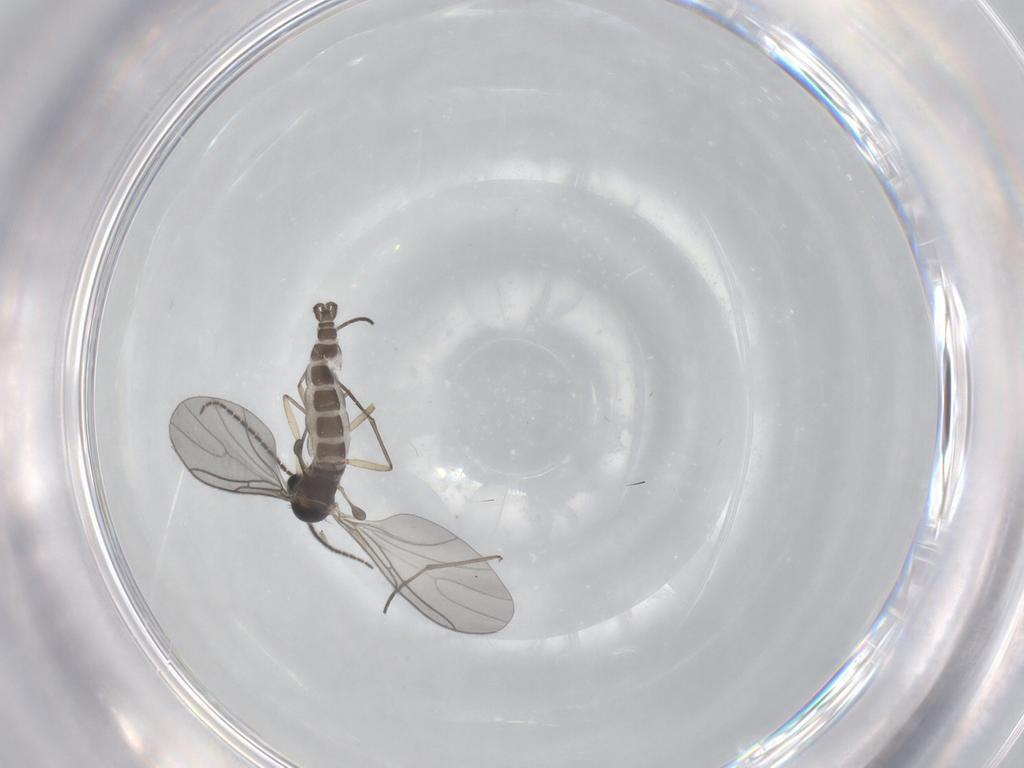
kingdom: Animalia
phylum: Arthropoda
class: Insecta
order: Diptera
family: Sciaridae
